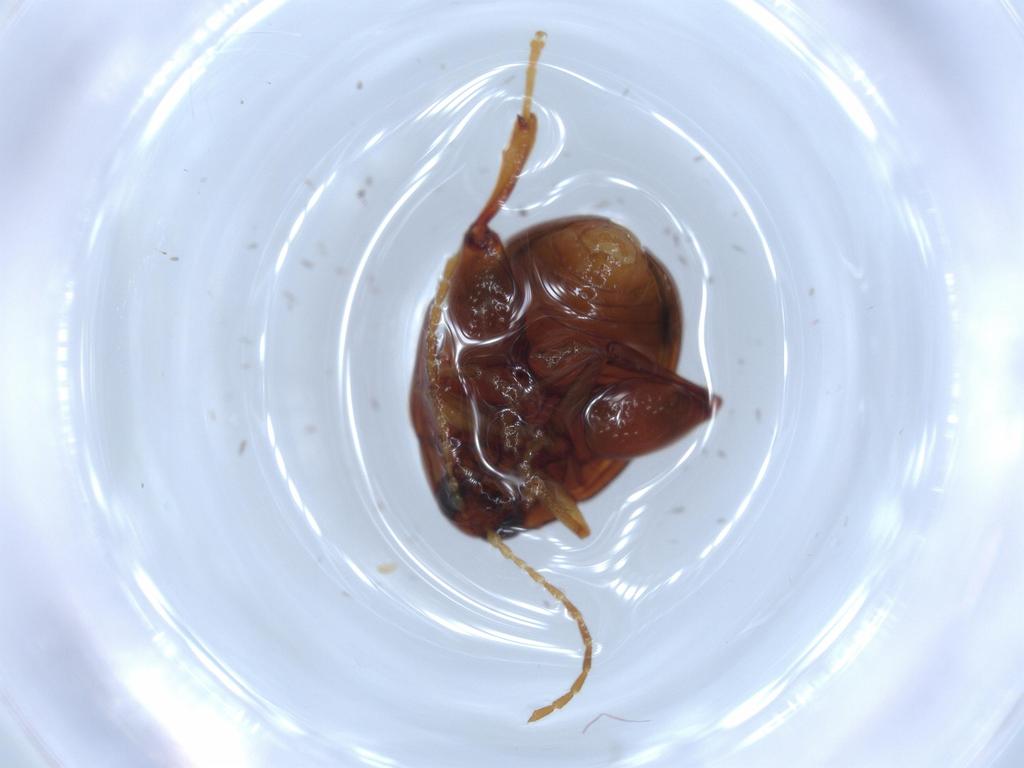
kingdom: Animalia
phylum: Arthropoda
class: Insecta
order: Coleoptera
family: Chrysomelidae
